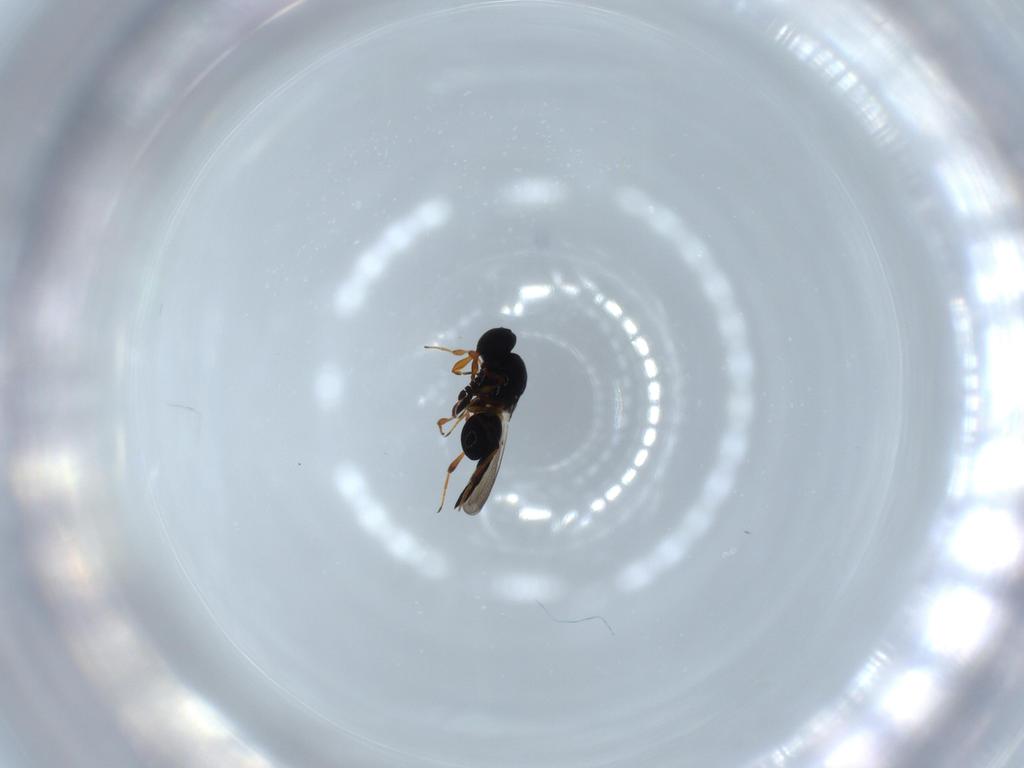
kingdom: Animalia
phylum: Arthropoda
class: Insecta
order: Hymenoptera
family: Platygastridae
